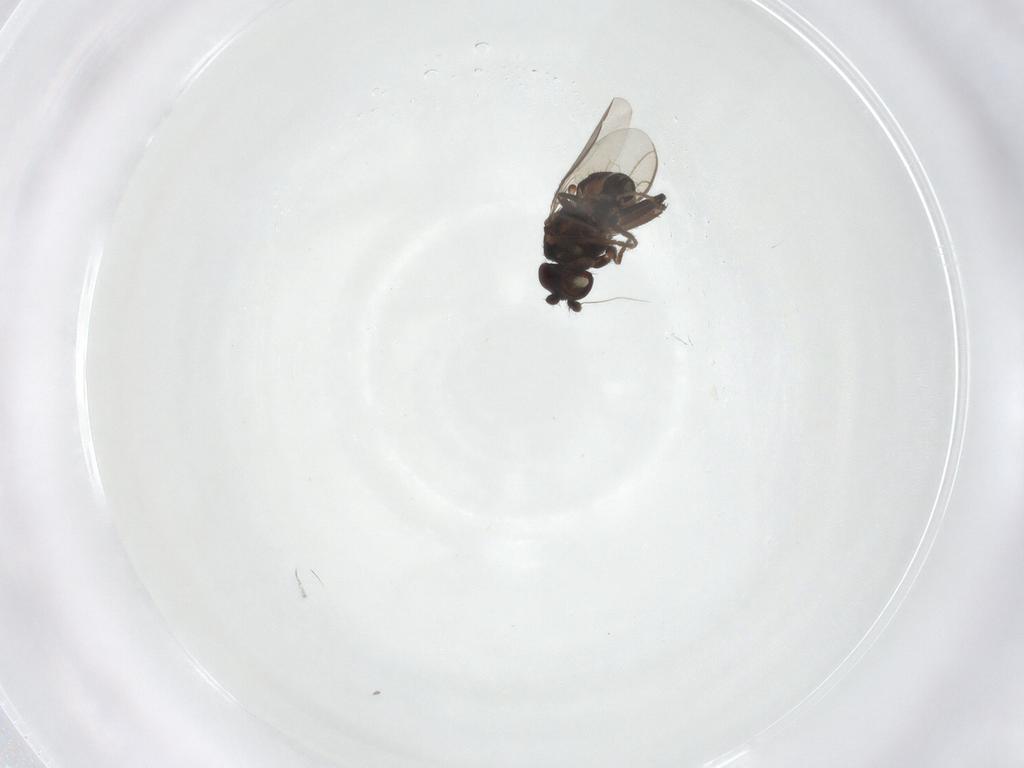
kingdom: Animalia
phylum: Arthropoda
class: Insecta
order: Diptera
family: Sphaeroceridae
